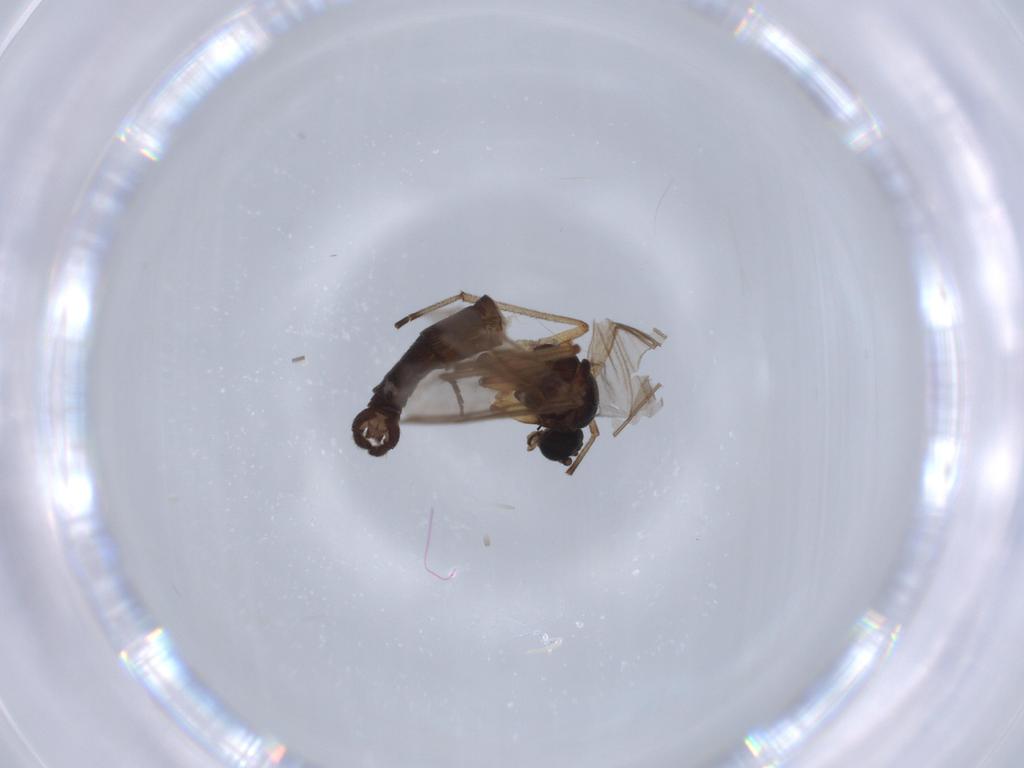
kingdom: Animalia
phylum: Arthropoda
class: Insecta
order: Diptera
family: Sciaridae
